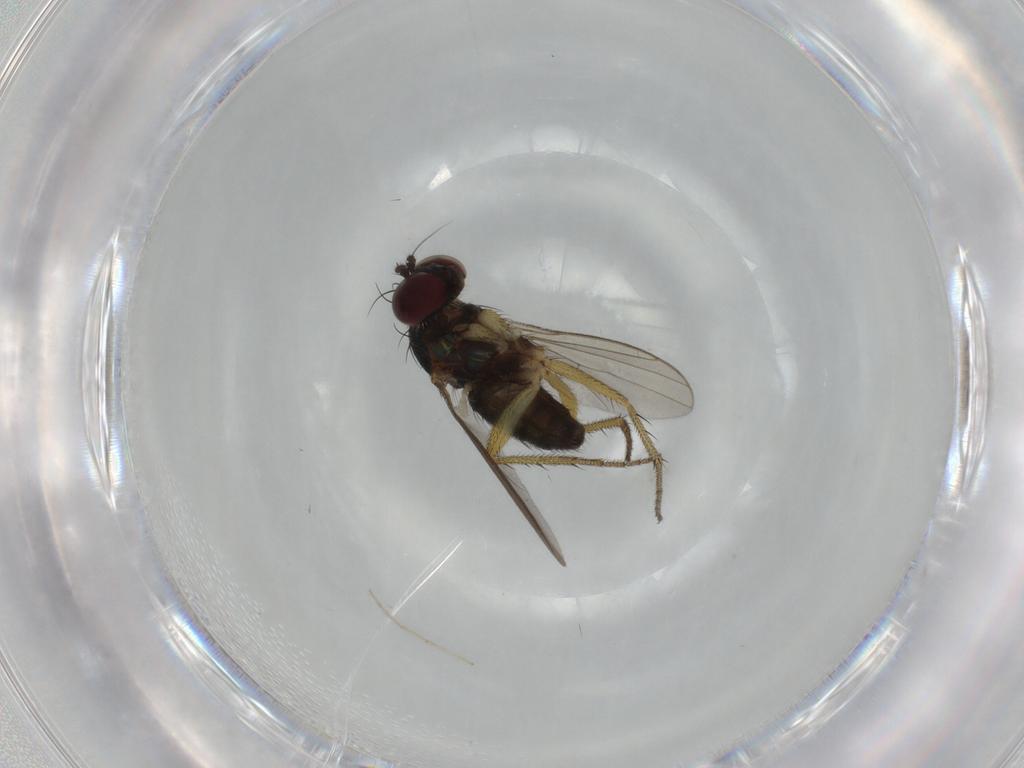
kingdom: Animalia
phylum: Arthropoda
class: Insecta
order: Diptera
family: Dolichopodidae
